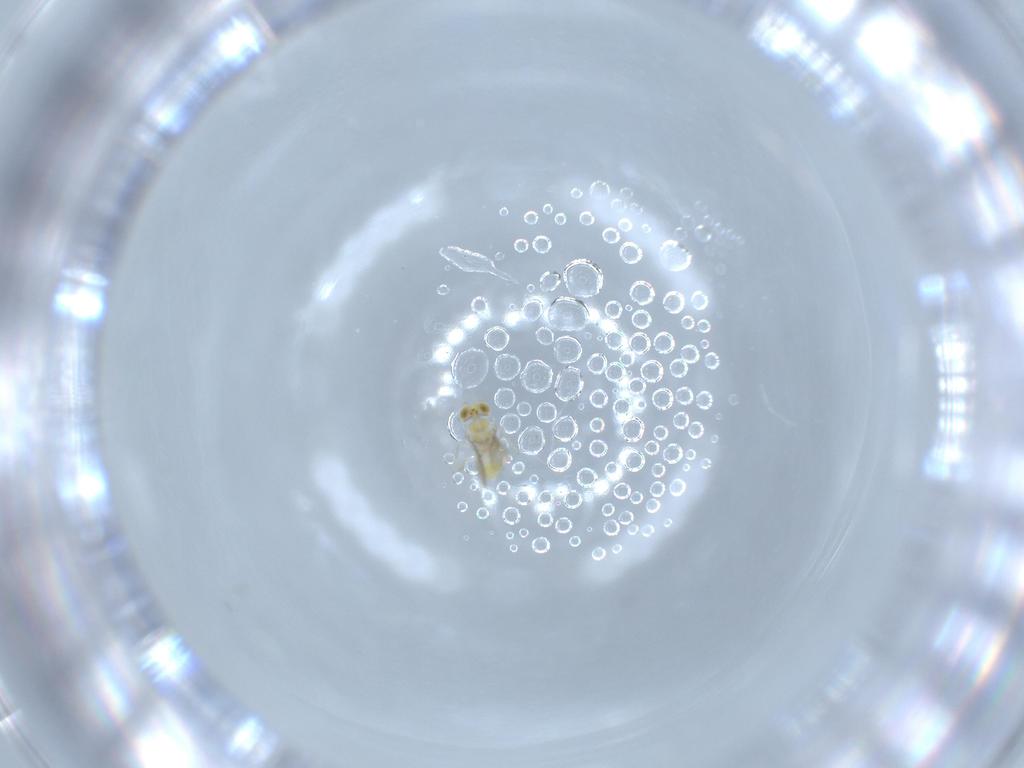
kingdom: Animalia
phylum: Arthropoda
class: Insecta
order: Hymenoptera
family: Aphelinidae
